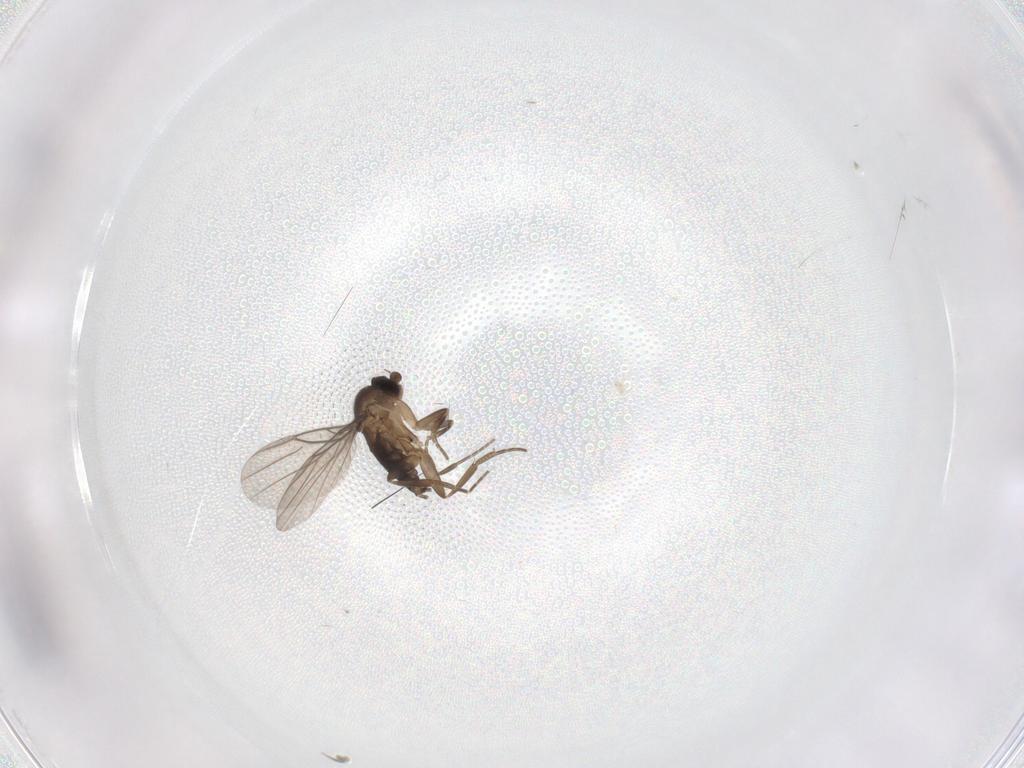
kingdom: Animalia
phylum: Arthropoda
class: Insecta
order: Diptera
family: Phoridae
